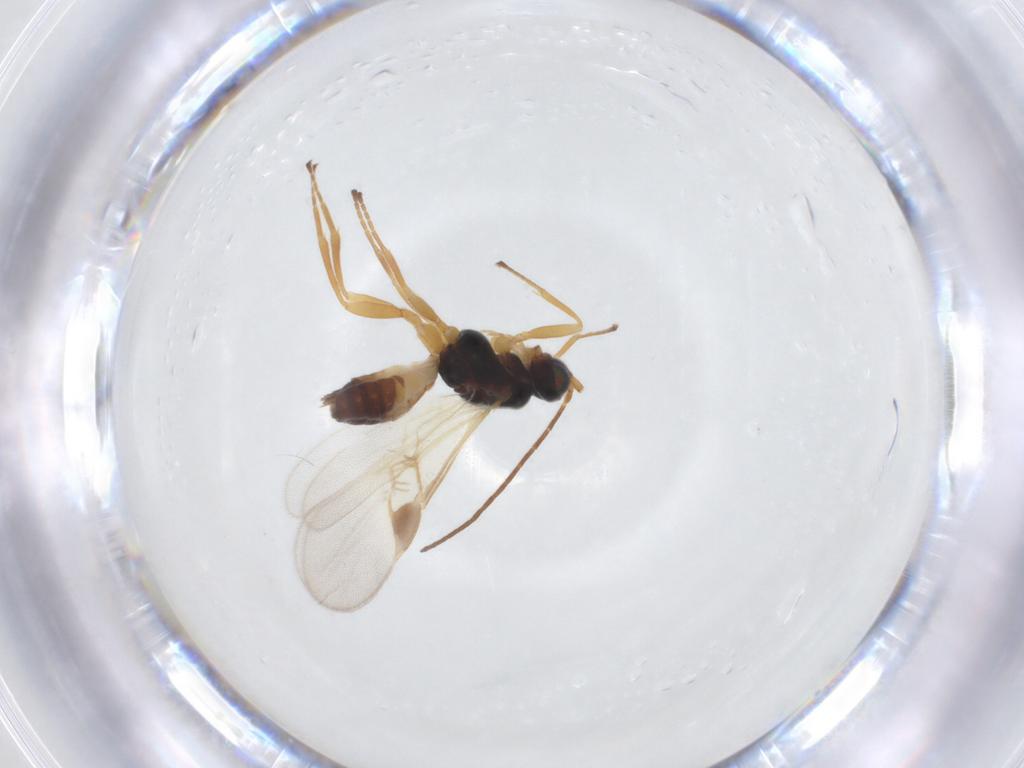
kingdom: Animalia
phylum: Arthropoda
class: Insecta
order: Hymenoptera
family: Braconidae
